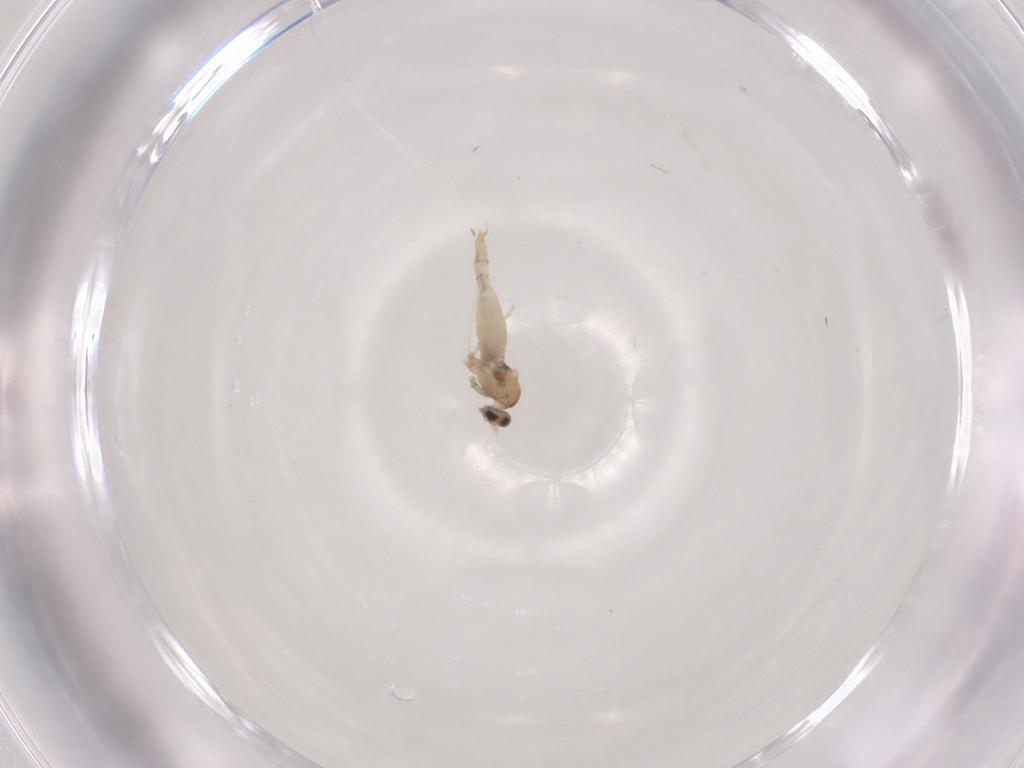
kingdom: Animalia
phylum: Arthropoda
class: Insecta
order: Diptera
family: Cecidomyiidae
